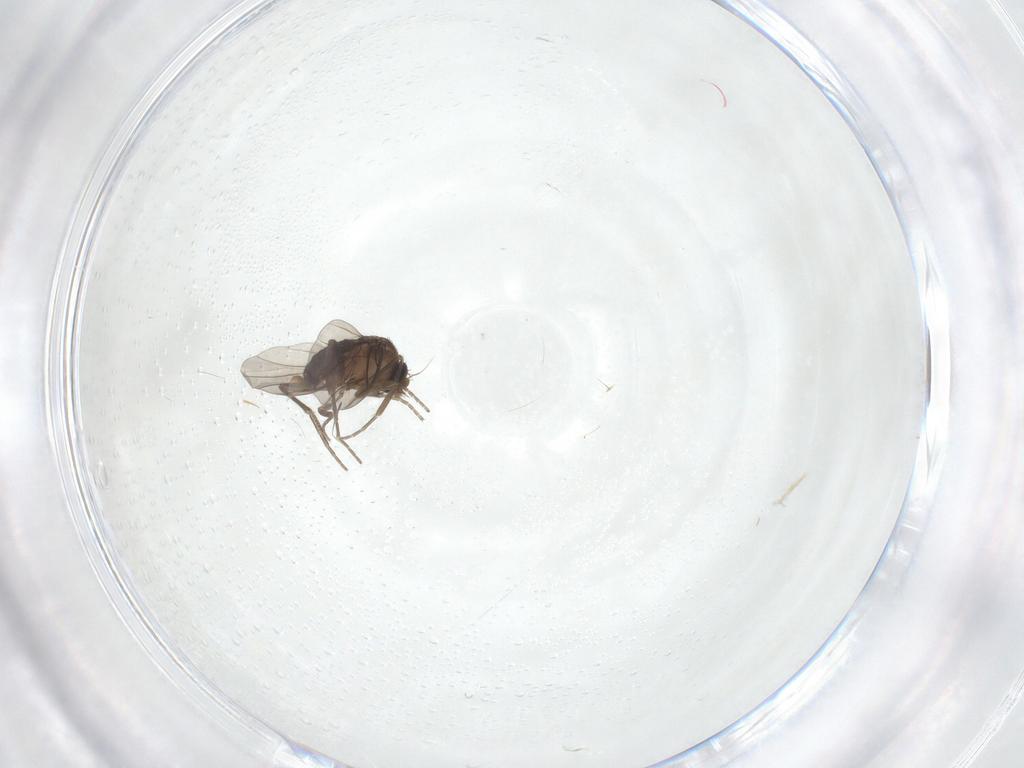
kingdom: Animalia
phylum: Arthropoda
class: Insecta
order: Diptera
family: Phoridae
